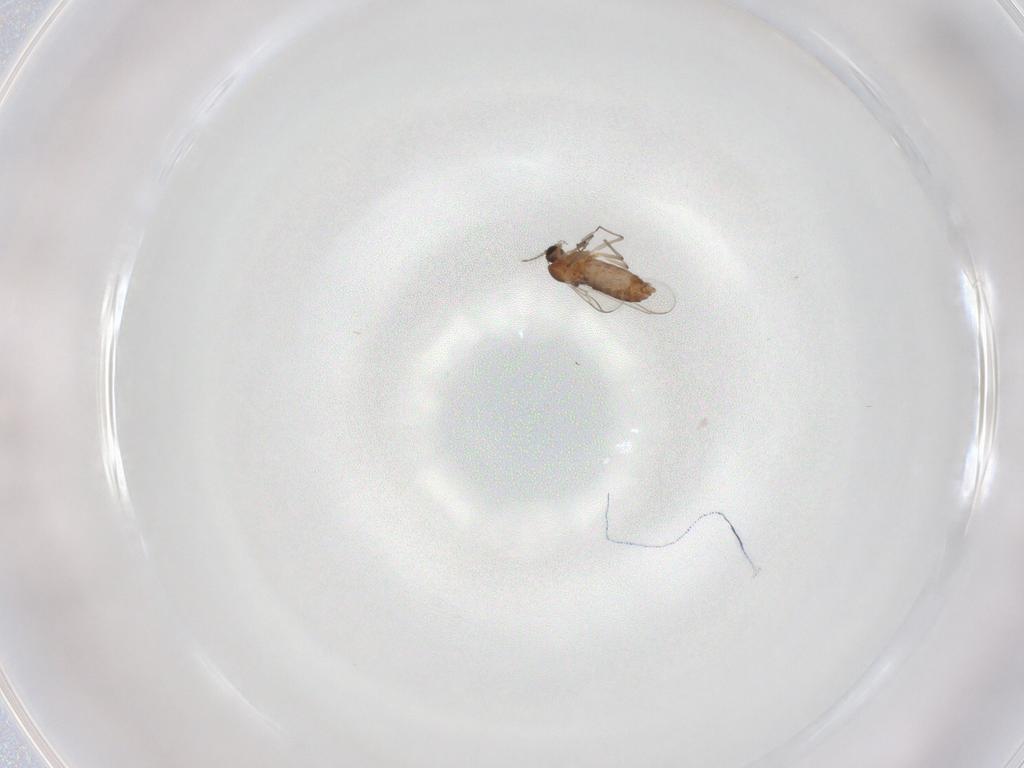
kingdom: Animalia
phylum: Arthropoda
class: Insecta
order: Diptera
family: Chironomidae
